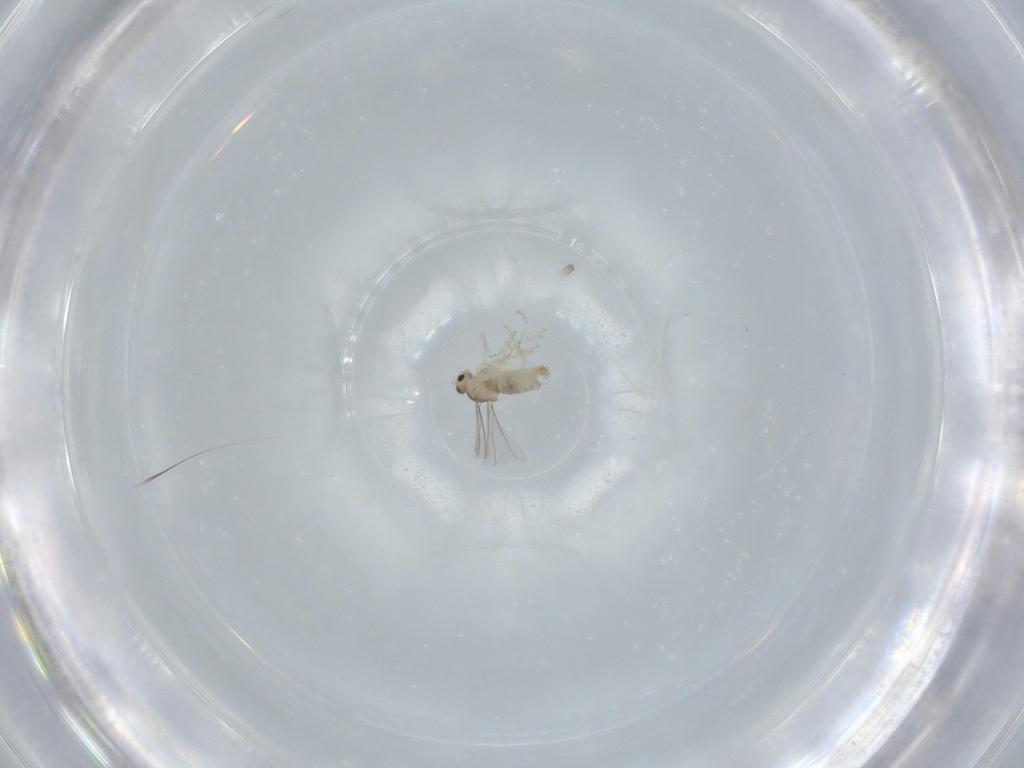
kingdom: Animalia
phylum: Arthropoda
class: Insecta
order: Diptera
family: Cecidomyiidae
